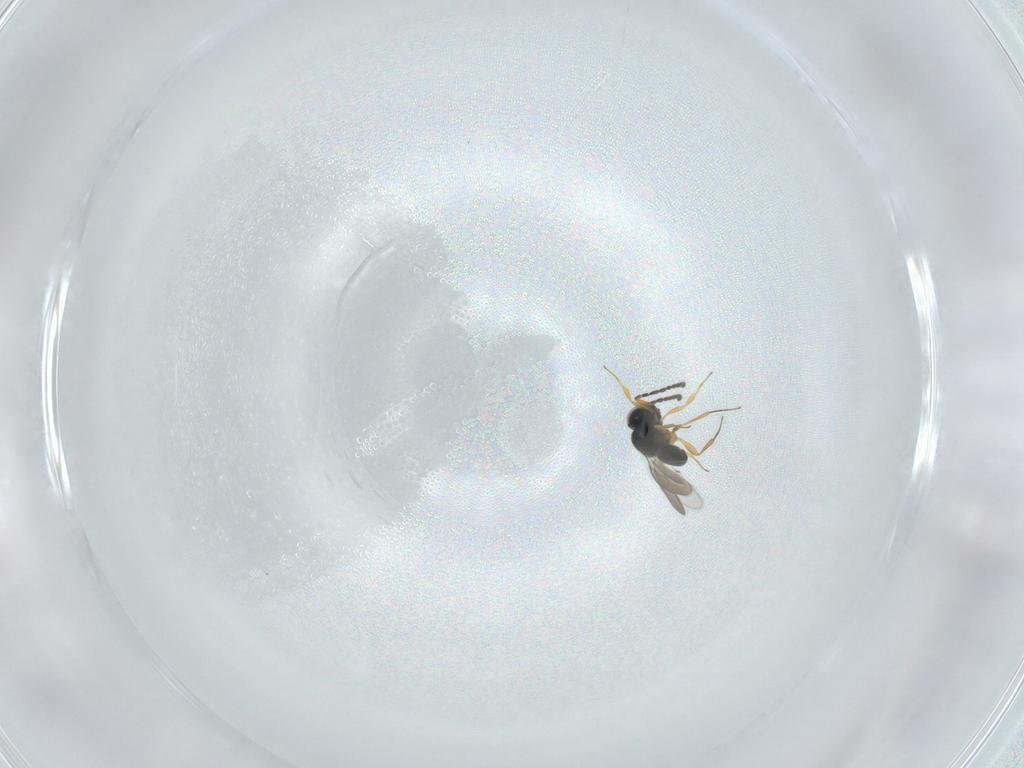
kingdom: Animalia
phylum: Arthropoda
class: Insecta
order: Hymenoptera
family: Scelionidae
